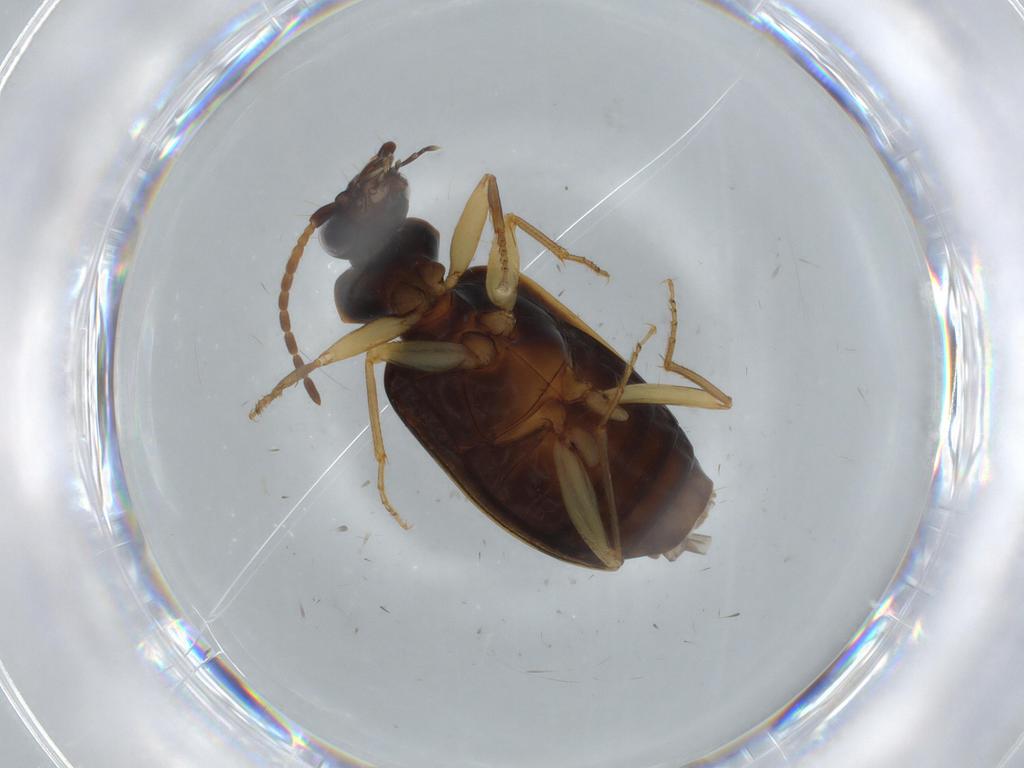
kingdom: Animalia
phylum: Arthropoda
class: Insecta
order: Coleoptera
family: Carabidae
